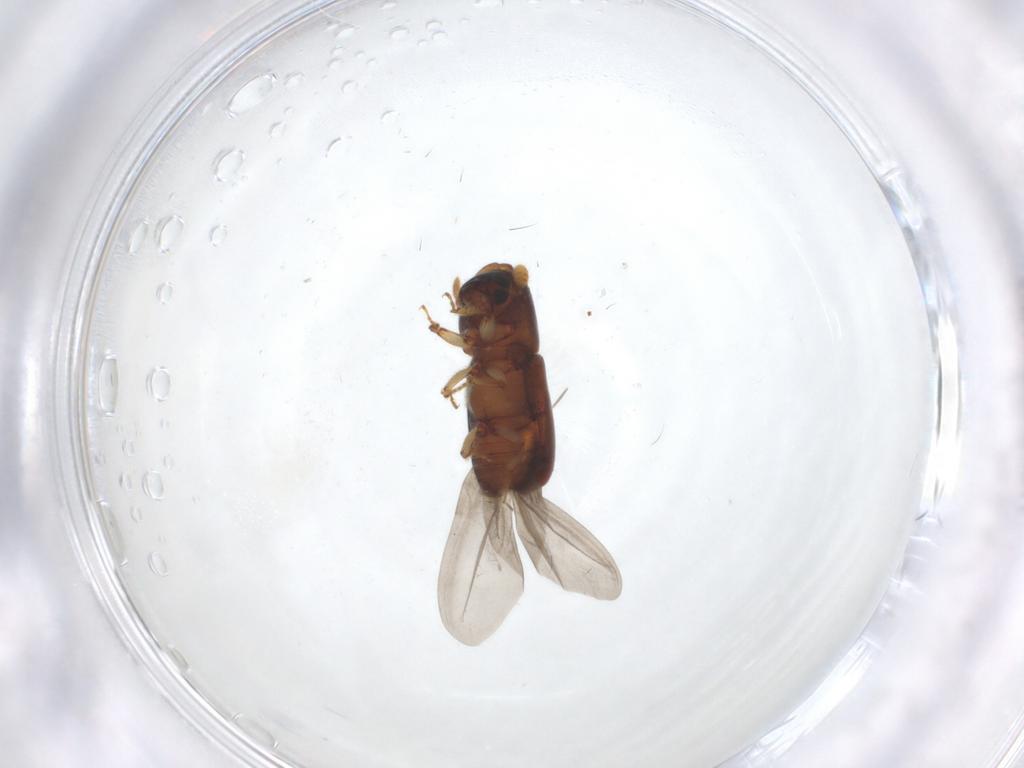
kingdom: Animalia
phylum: Arthropoda
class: Insecta
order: Coleoptera
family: Curculionidae
